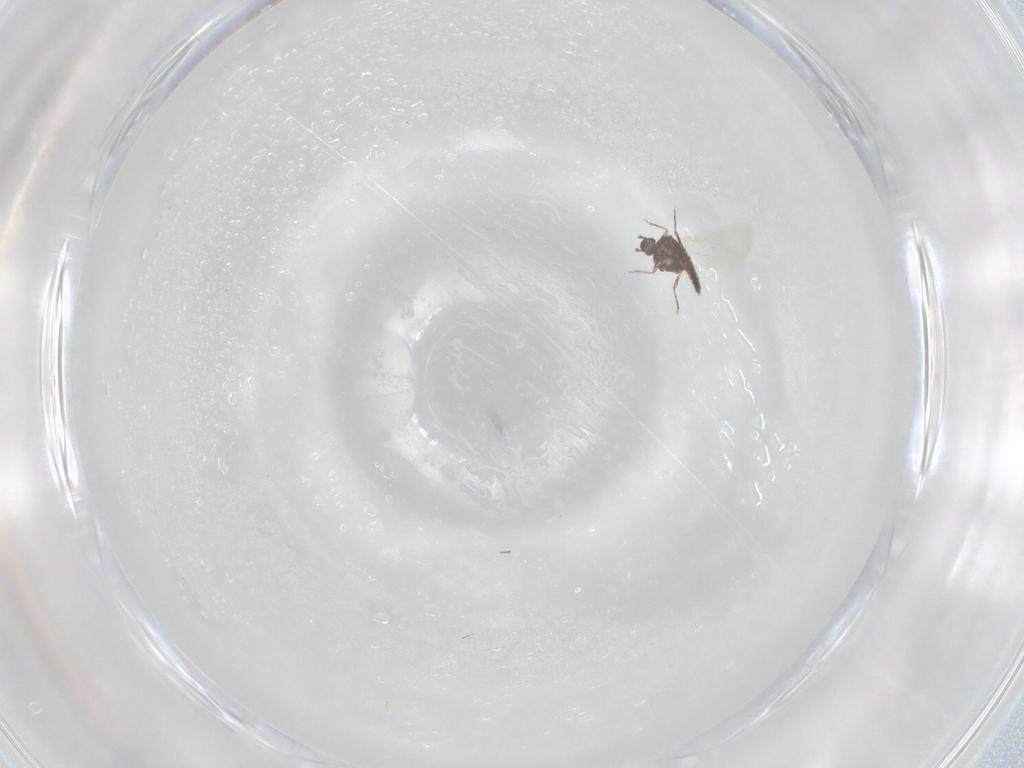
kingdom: Animalia
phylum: Arthropoda
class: Insecta
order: Diptera
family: Anthomyiidae
